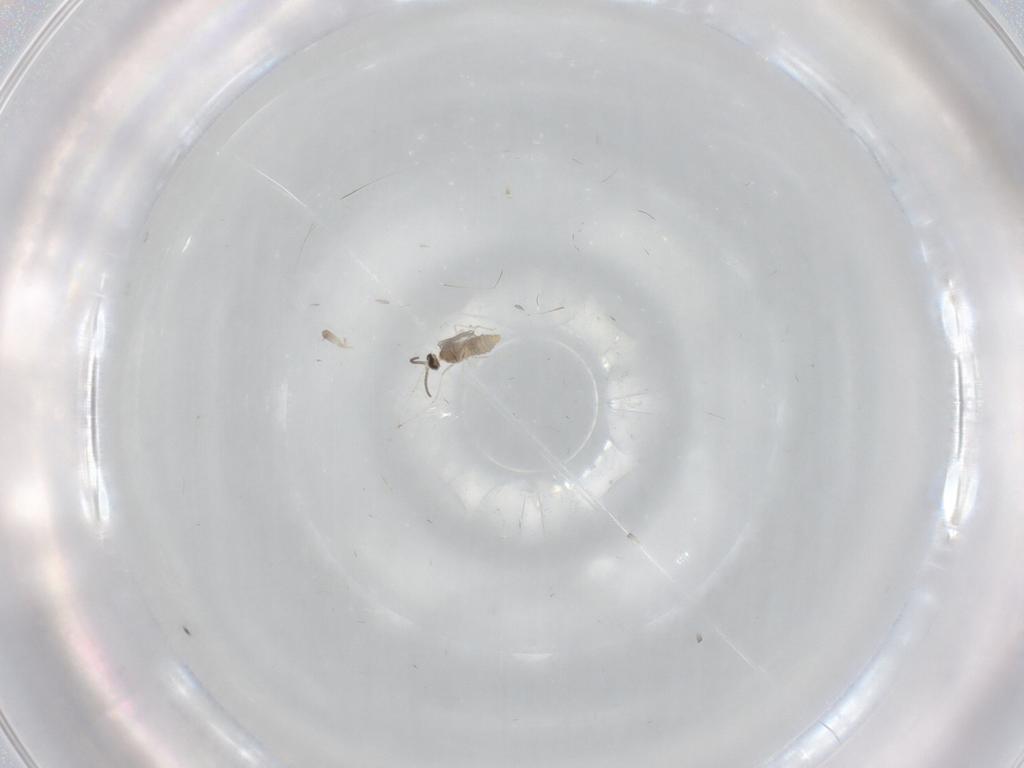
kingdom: Animalia
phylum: Arthropoda
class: Insecta
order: Diptera
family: Cecidomyiidae
